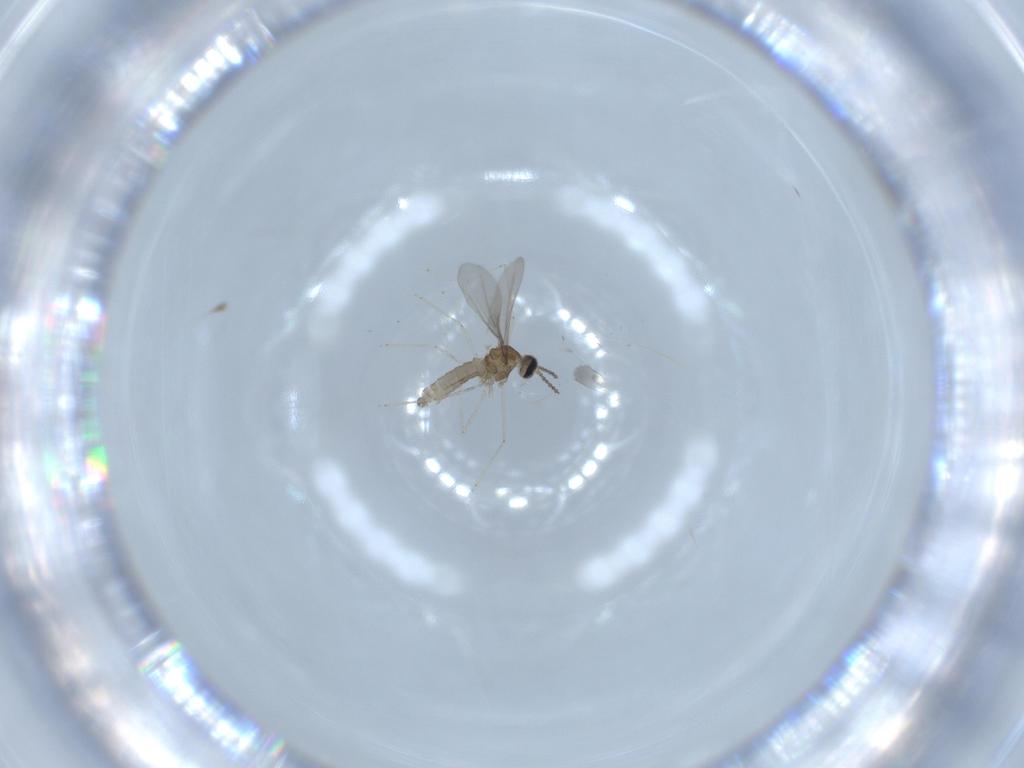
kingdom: Animalia
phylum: Arthropoda
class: Insecta
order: Diptera
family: Cecidomyiidae
